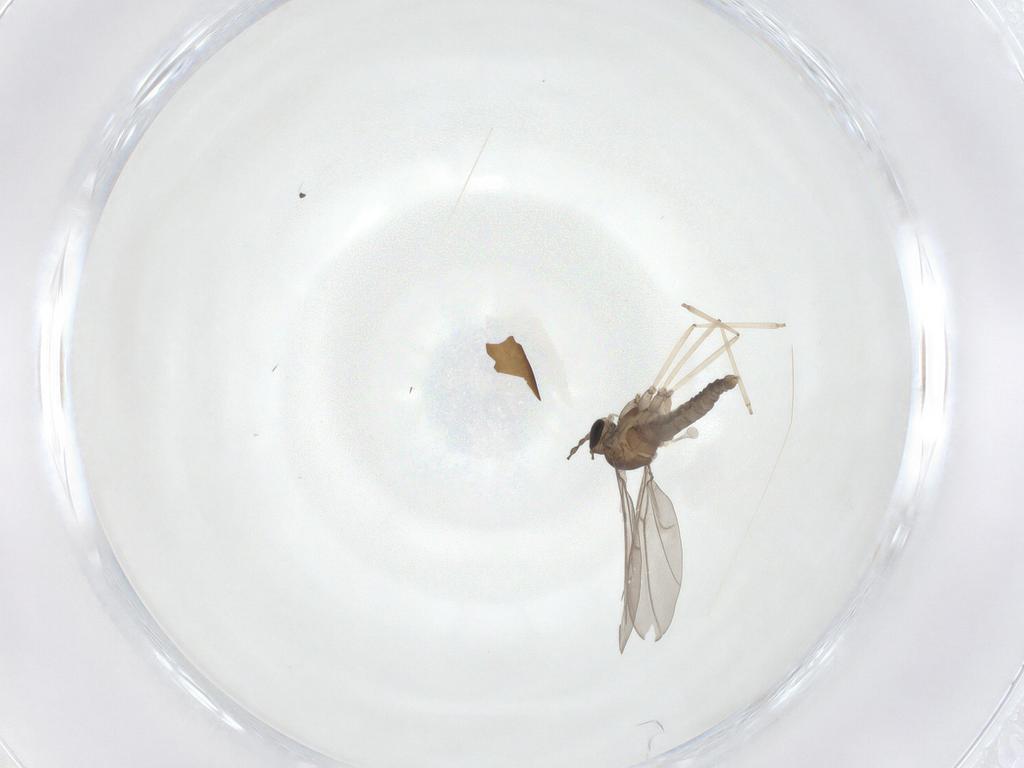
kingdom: Animalia
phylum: Arthropoda
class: Insecta
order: Diptera
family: Cecidomyiidae
